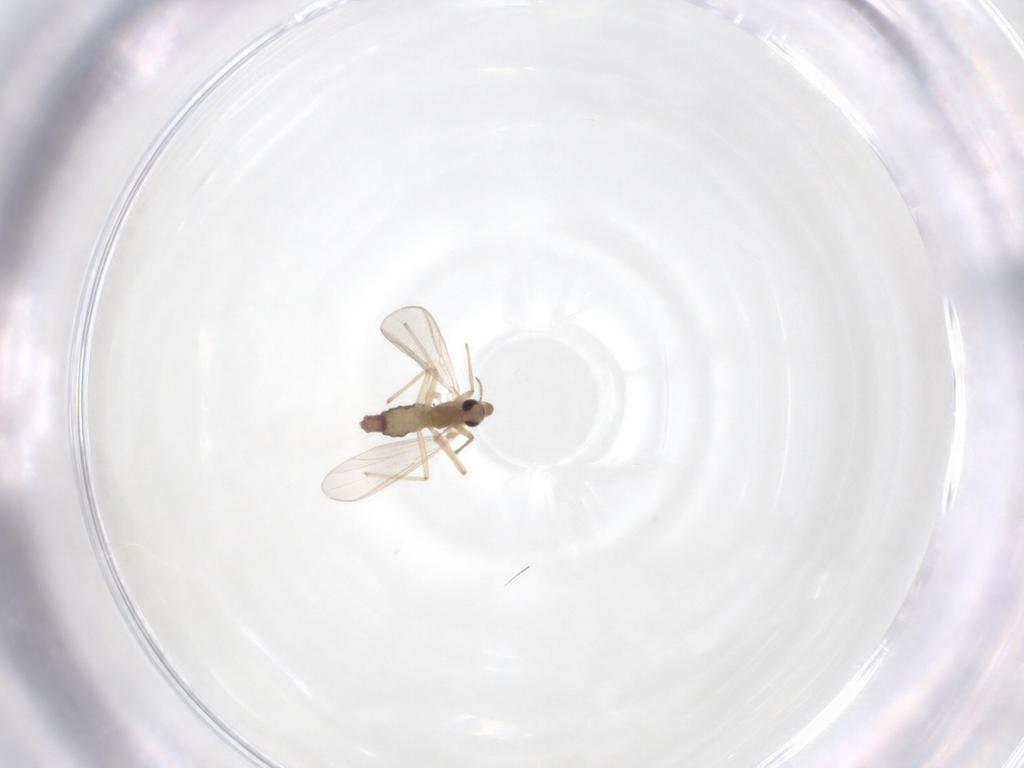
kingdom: Animalia
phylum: Arthropoda
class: Insecta
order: Diptera
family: Chironomidae
